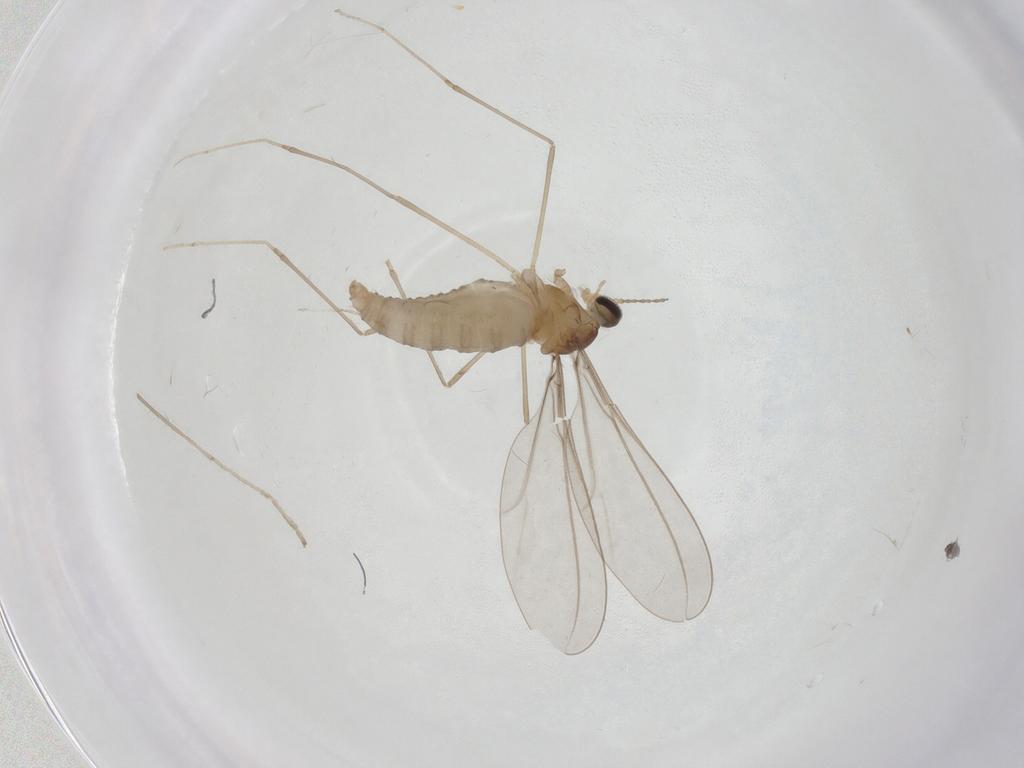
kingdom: Animalia
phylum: Arthropoda
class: Insecta
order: Diptera
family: Cecidomyiidae
